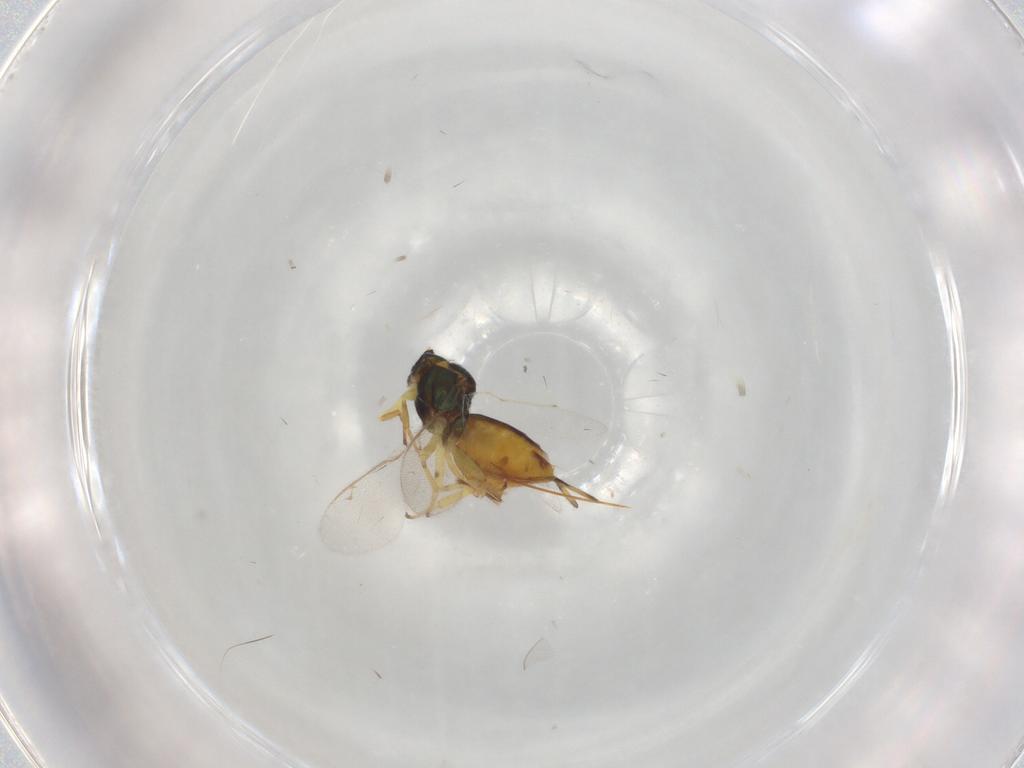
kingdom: Animalia
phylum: Arthropoda
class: Insecta
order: Hymenoptera
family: Eupelmidae
